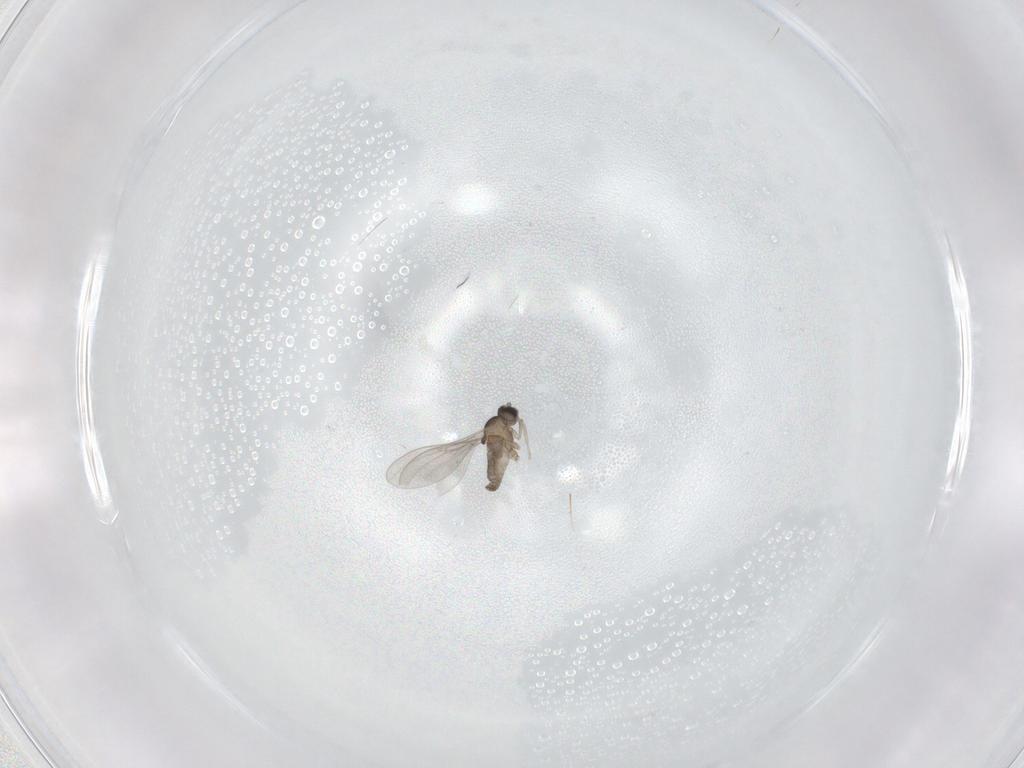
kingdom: Animalia
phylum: Arthropoda
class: Insecta
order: Diptera
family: Cecidomyiidae
